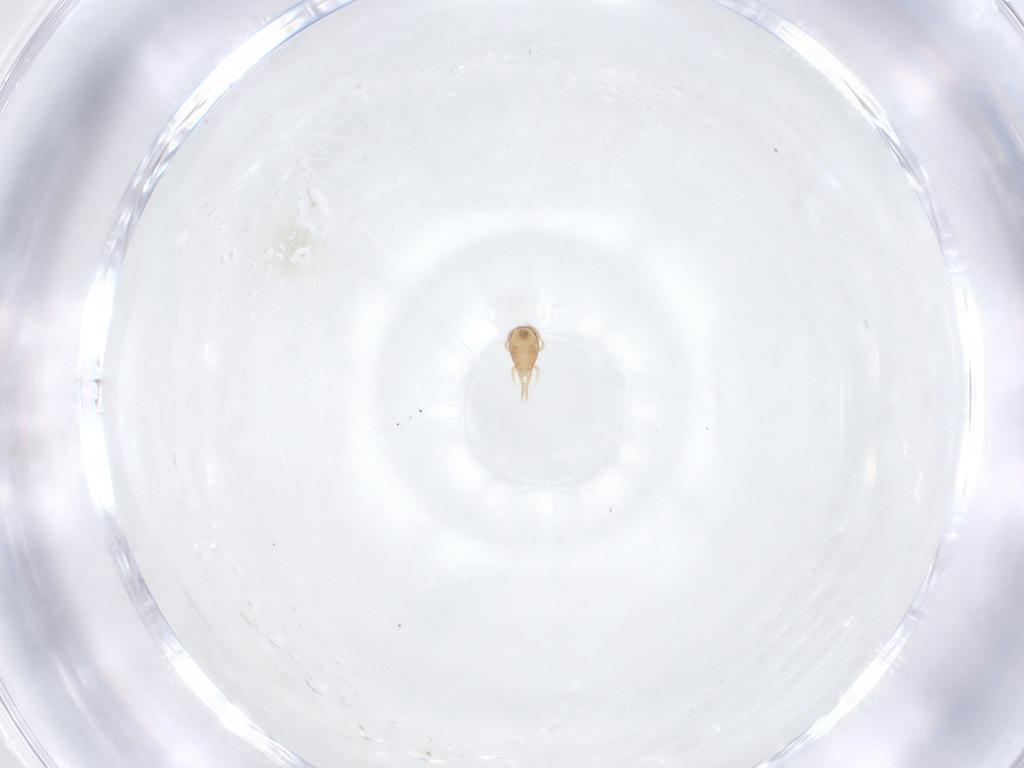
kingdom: Animalia
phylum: Arthropoda
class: Arachnida
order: Mesostigmata
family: Ameroseiidae
